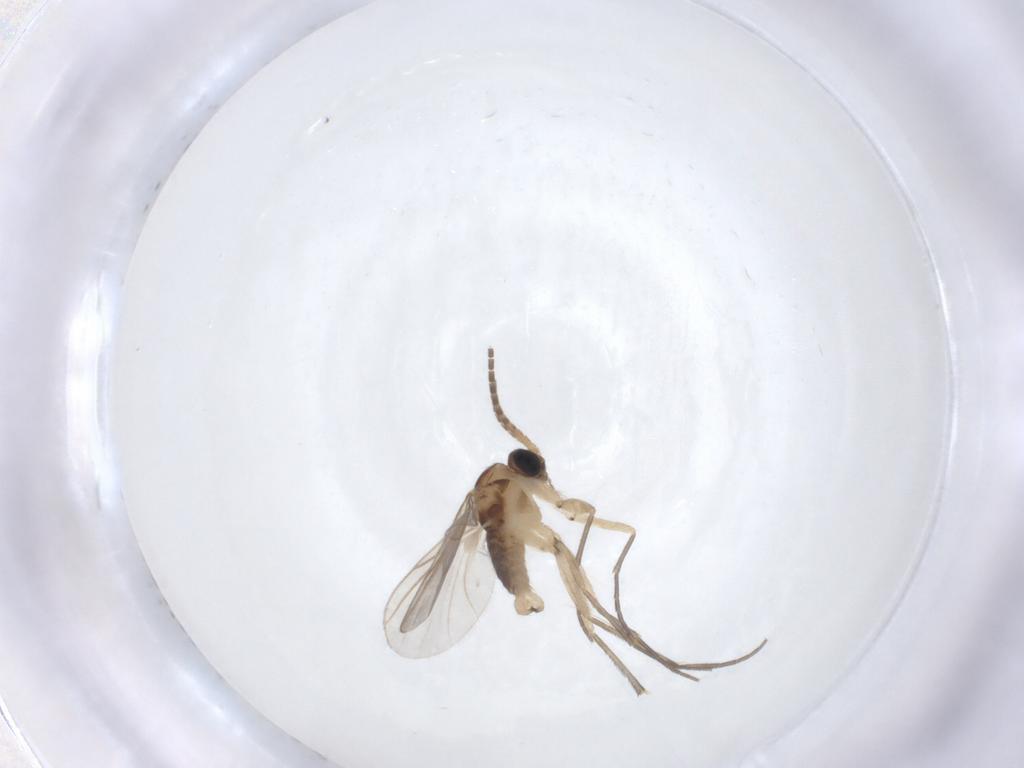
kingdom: Animalia
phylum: Arthropoda
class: Insecta
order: Diptera
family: Sciaridae
